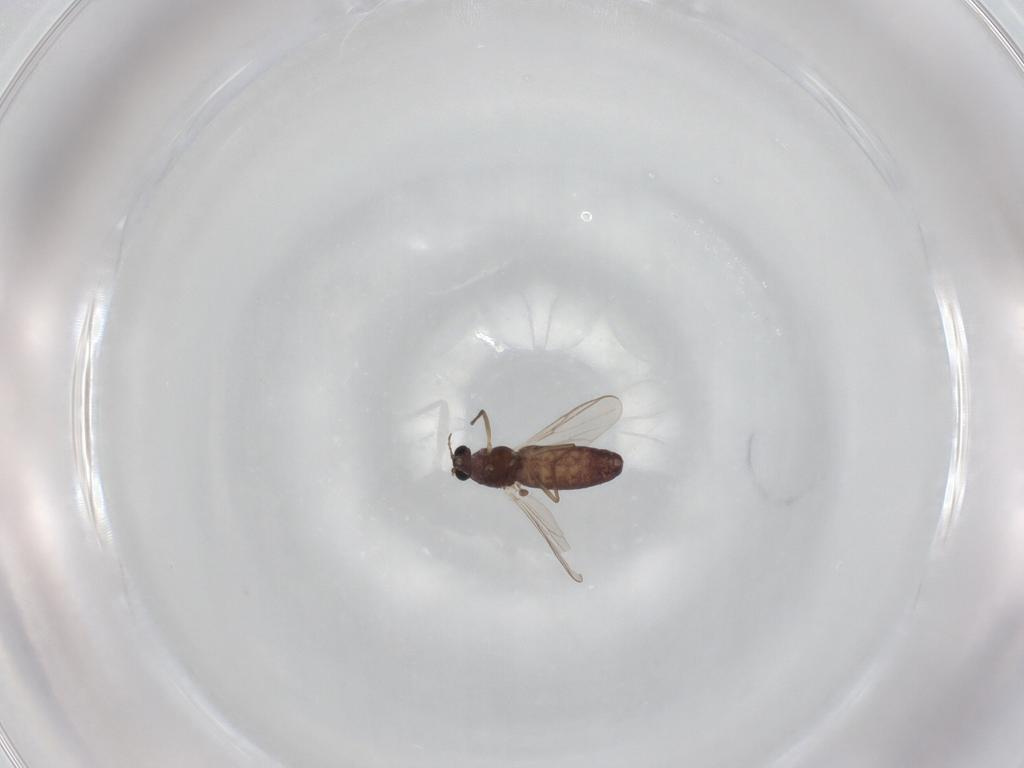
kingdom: Animalia
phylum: Arthropoda
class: Insecta
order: Diptera
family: Chironomidae
